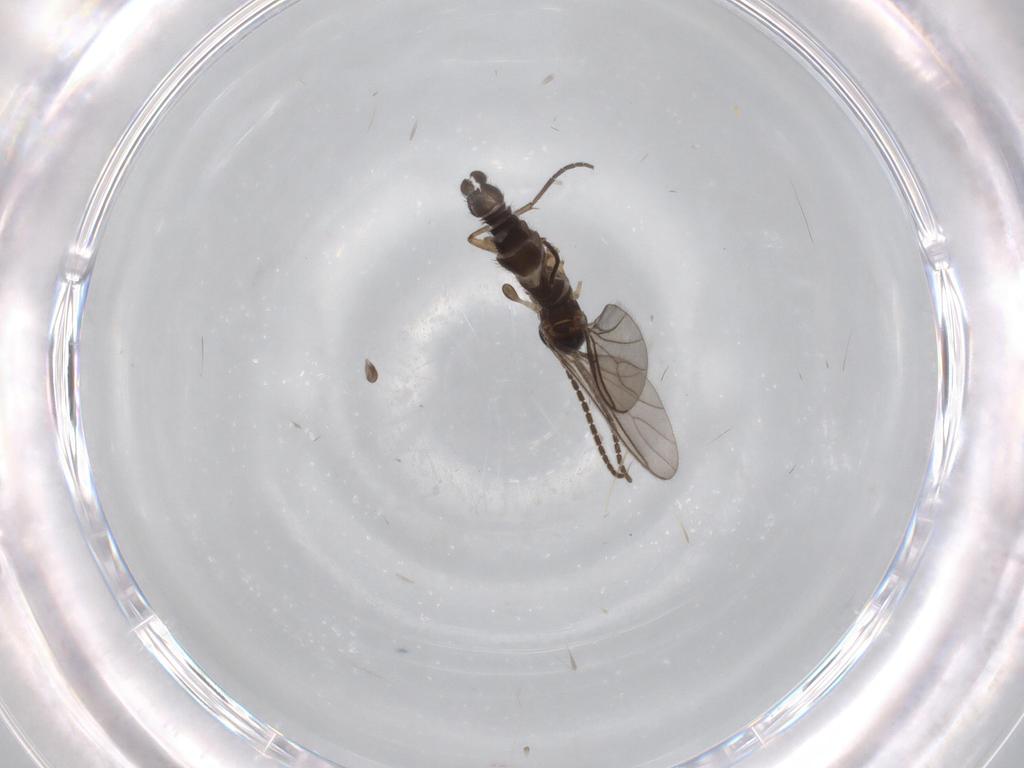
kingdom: Animalia
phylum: Arthropoda
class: Insecta
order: Diptera
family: Sciaridae
